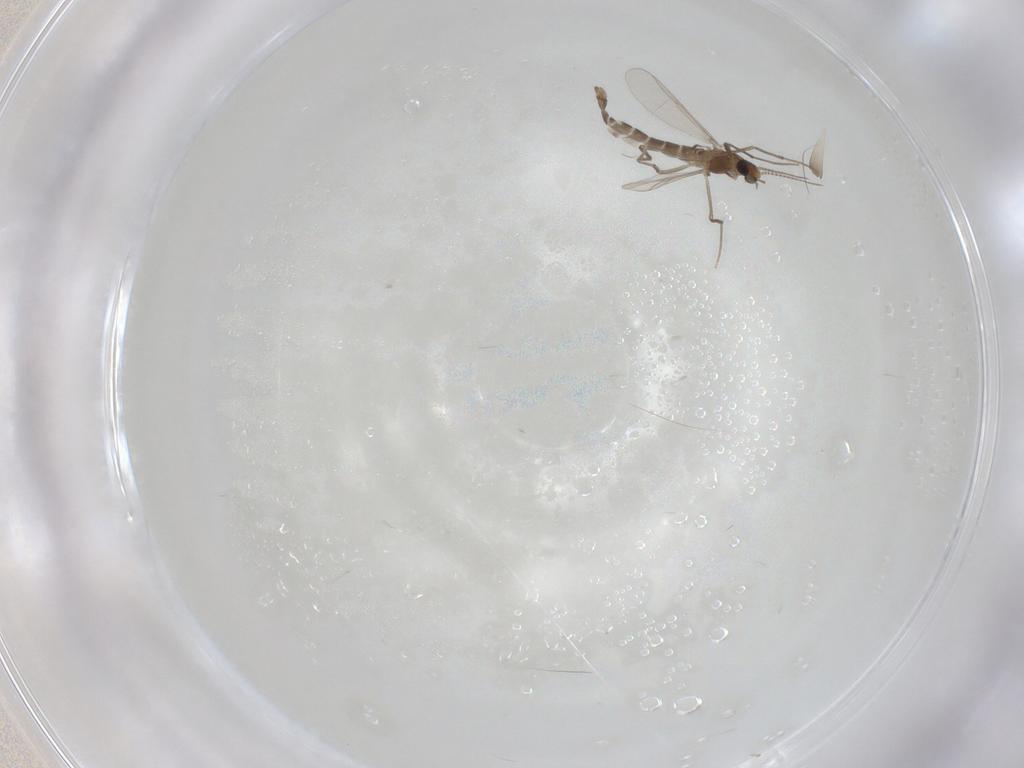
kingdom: Animalia
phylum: Arthropoda
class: Insecta
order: Diptera
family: Chironomidae
